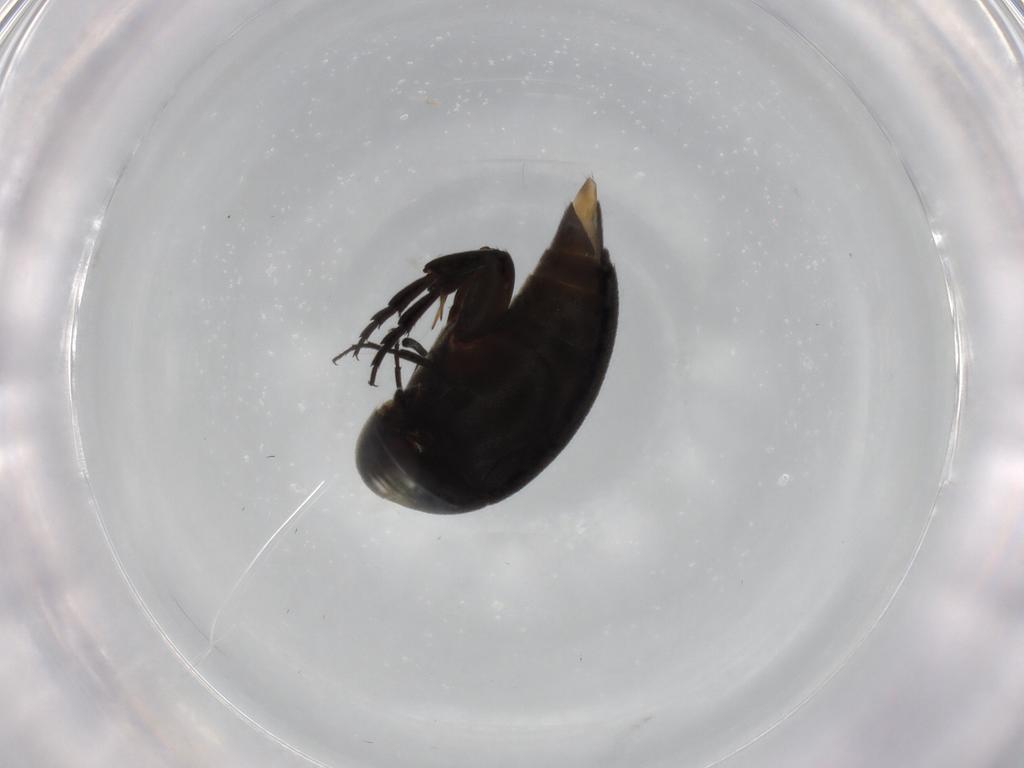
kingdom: Animalia
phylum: Arthropoda
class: Insecta
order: Coleoptera
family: Mordellidae
